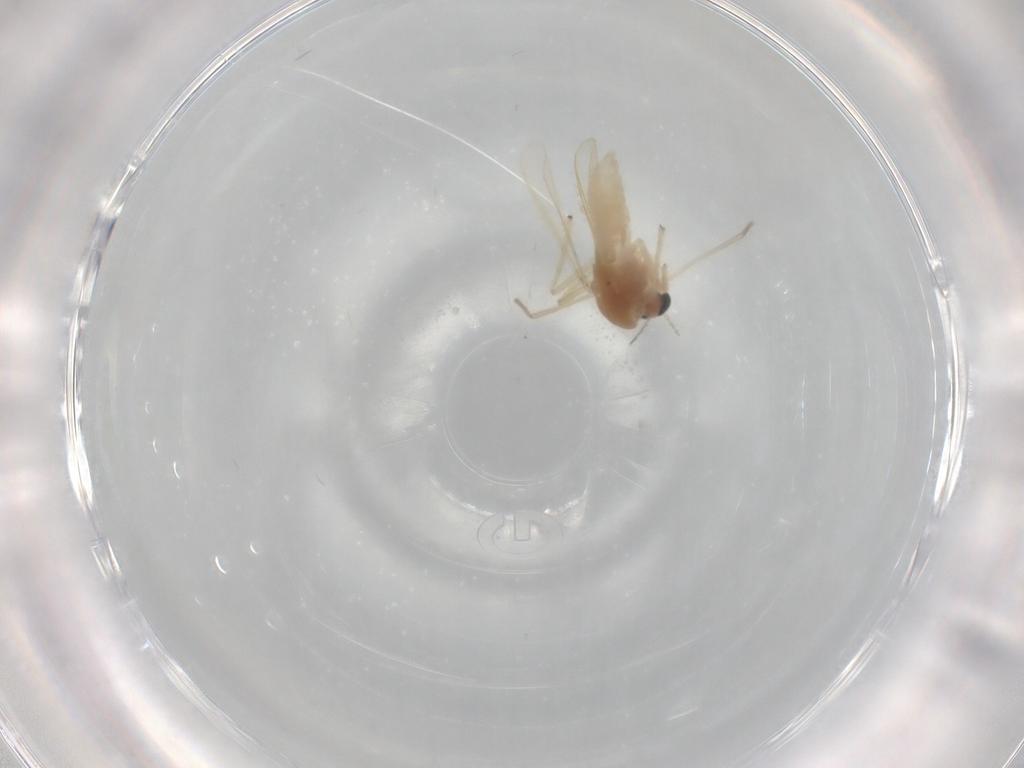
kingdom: Animalia
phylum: Arthropoda
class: Insecta
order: Diptera
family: Chironomidae
